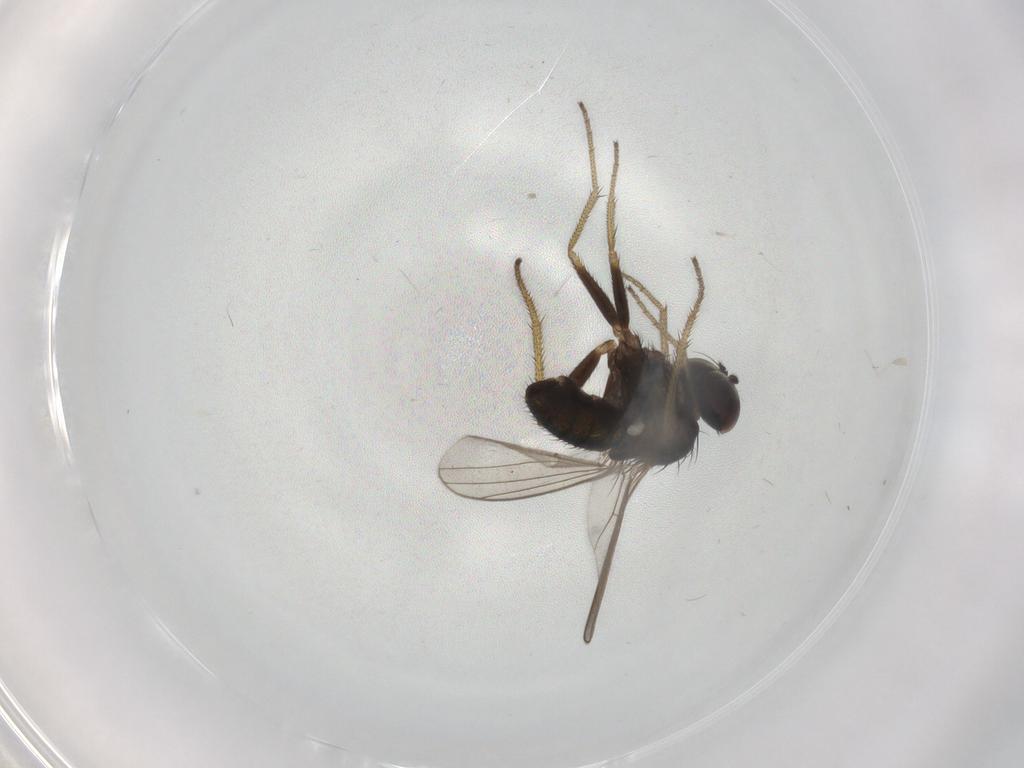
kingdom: Animalia
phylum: Arthropoda
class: Insecta
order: Diptera
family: Dolichopodidae
